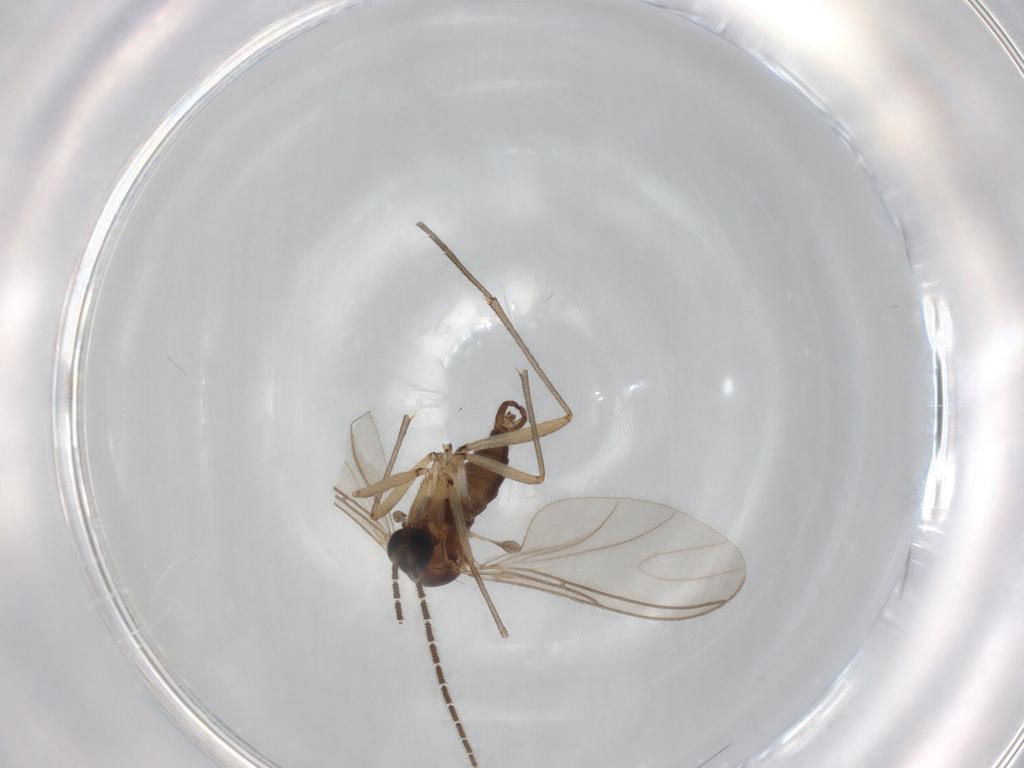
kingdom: Animalia
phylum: Arthropoda
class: Insecta
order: Diptera
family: Sciaridae
